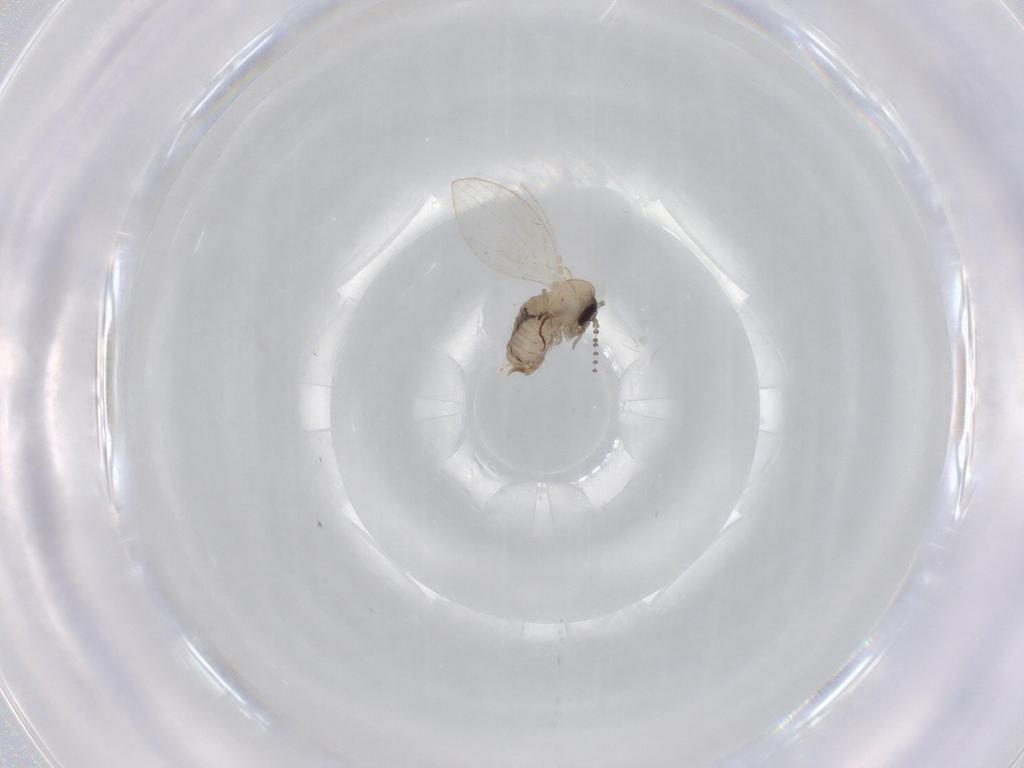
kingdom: Animalia
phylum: Arthropoda
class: Insecta
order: Diptera
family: Psychodidae
